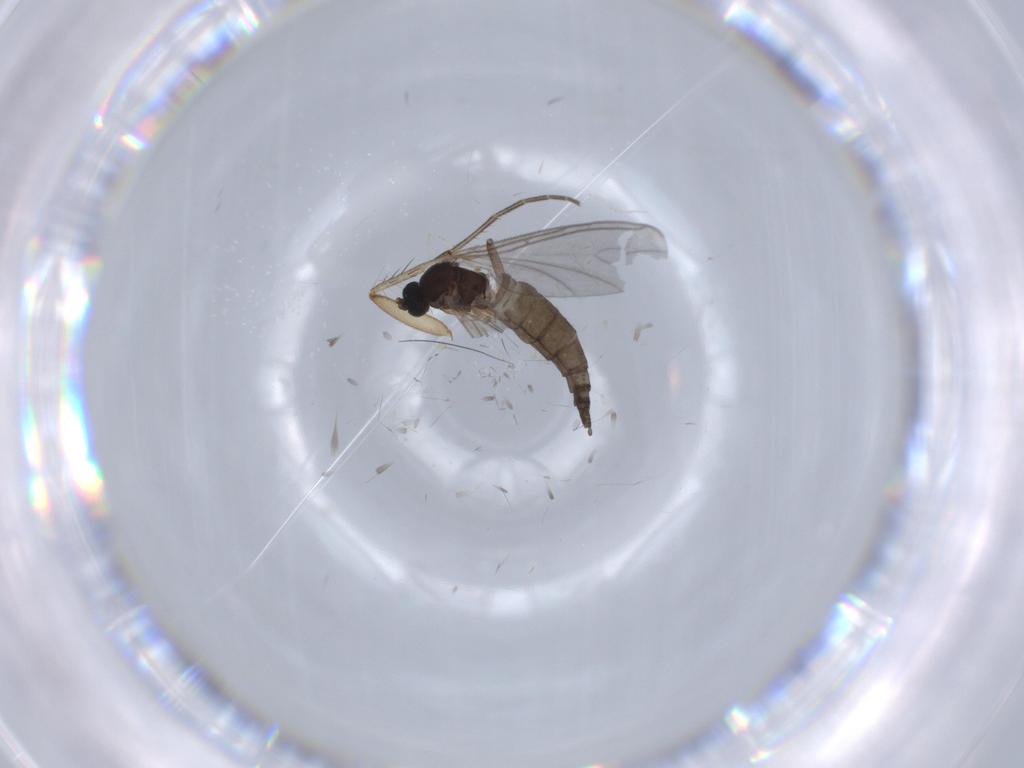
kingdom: Animalia
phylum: Arthropoda
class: Insecta
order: Diptera
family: Sciaridae
